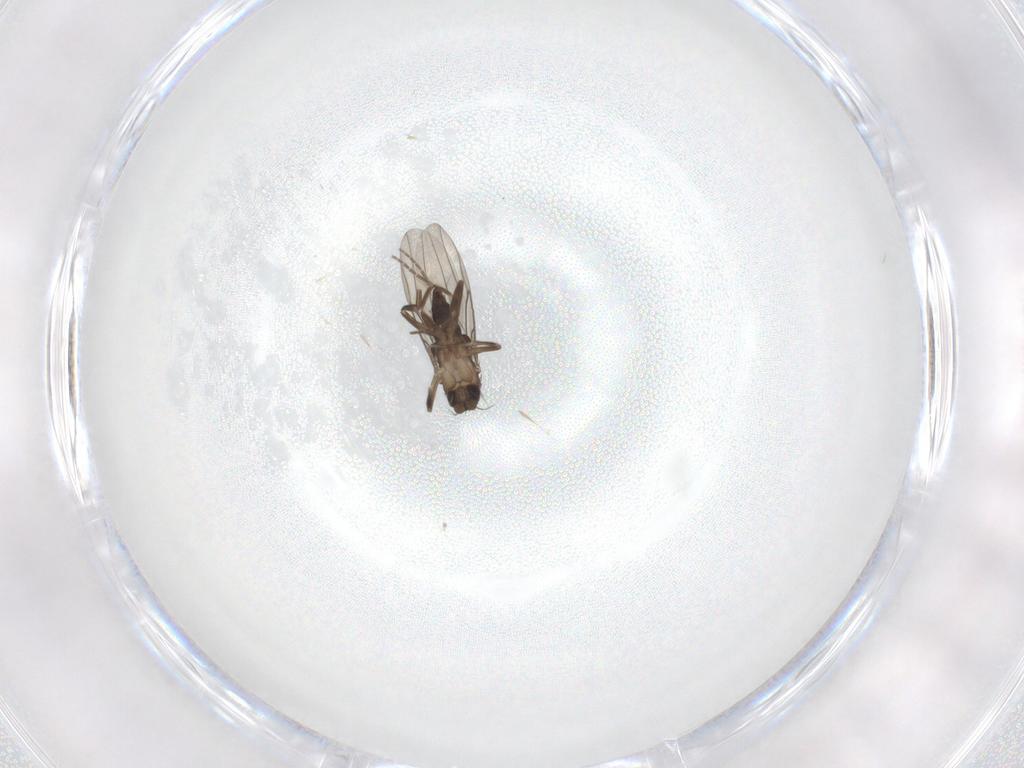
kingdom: Animalia
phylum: Arthropoda
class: Insecta
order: Diptera
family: Phoridae
